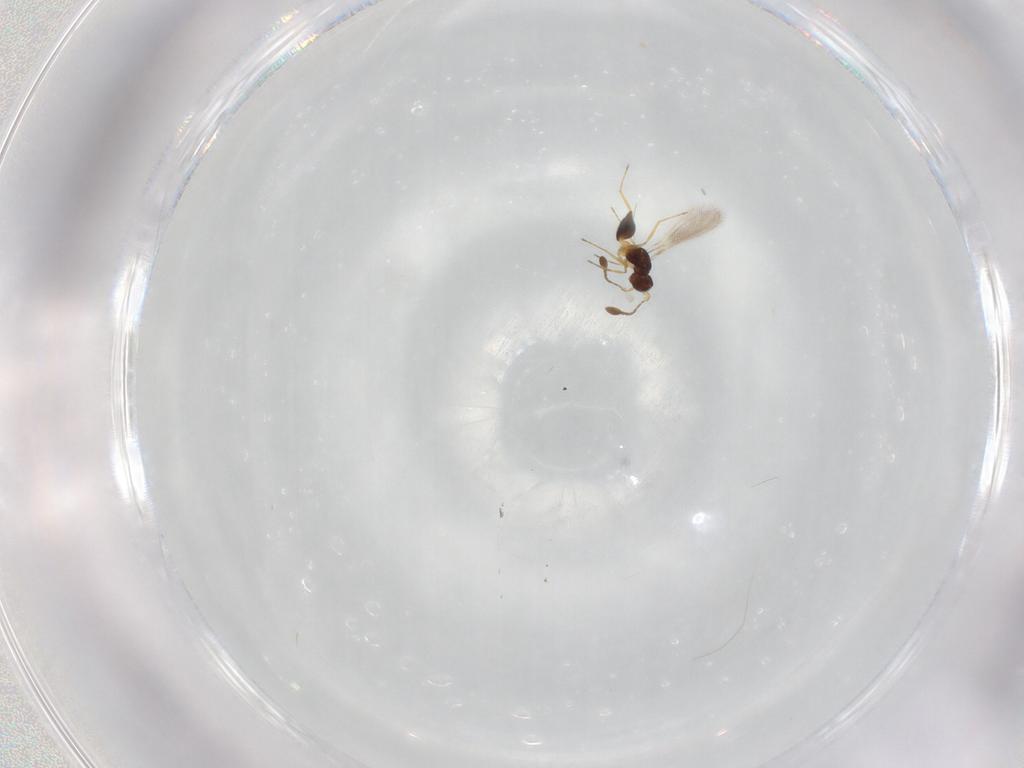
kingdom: Animalia
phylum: Arthropoda
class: Insecta
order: Hymenoptera
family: Mymaridae
